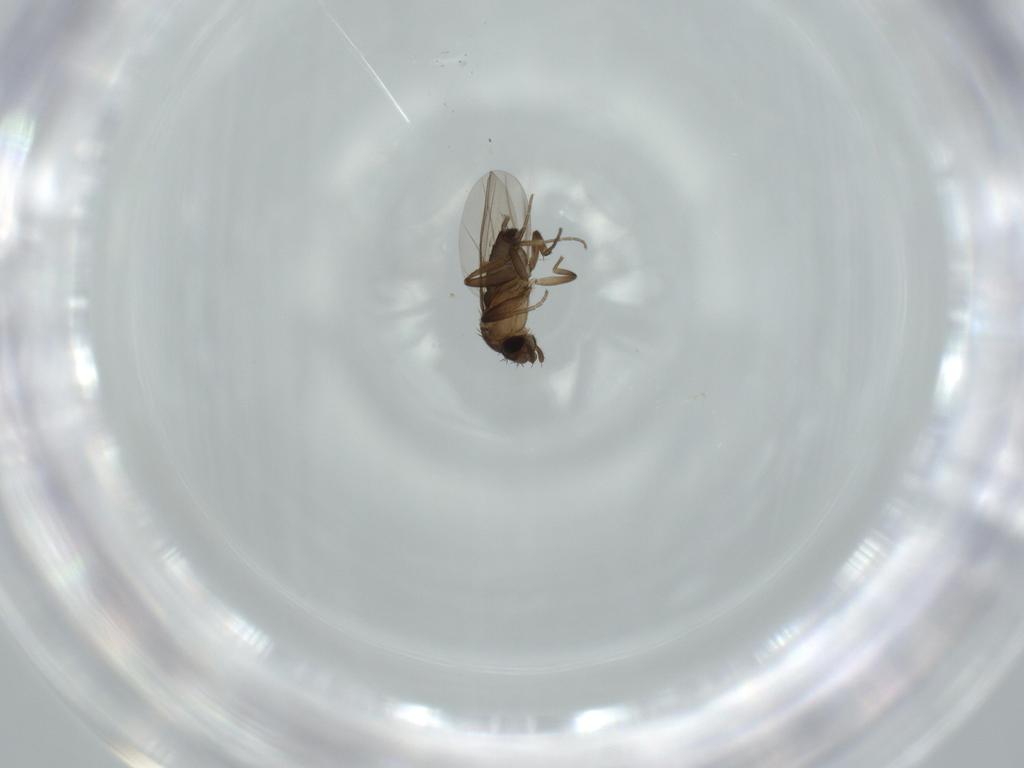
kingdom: Animalia
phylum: Arthropoda
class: Insecta
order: Diptera
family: Phoridae
